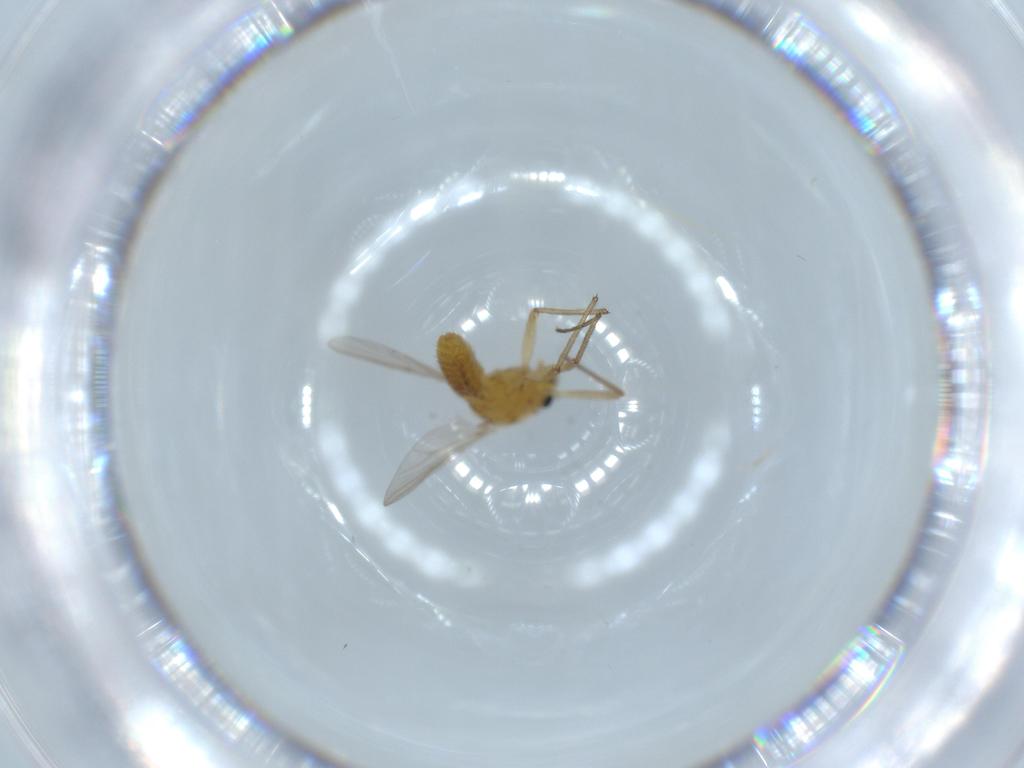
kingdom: Animalia
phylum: Arthropoda
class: Insecta
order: Diptera
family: Chironomidae
